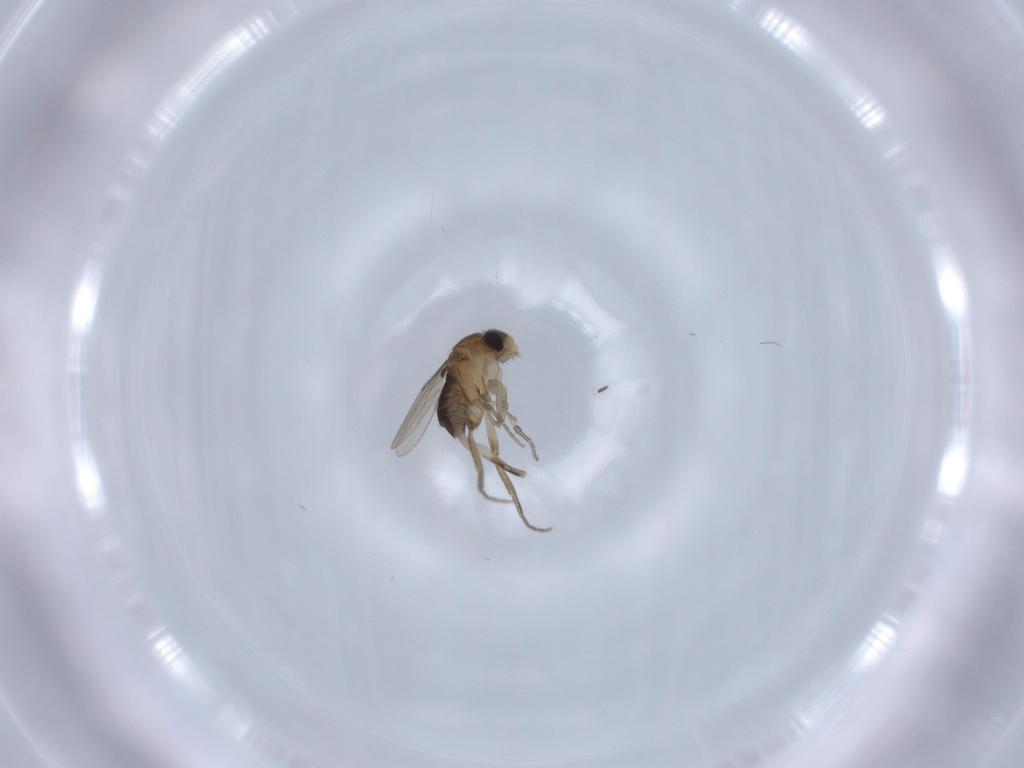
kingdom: Animalia
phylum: Arthropoda
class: Insecta
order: Diptera
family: Phoridae
